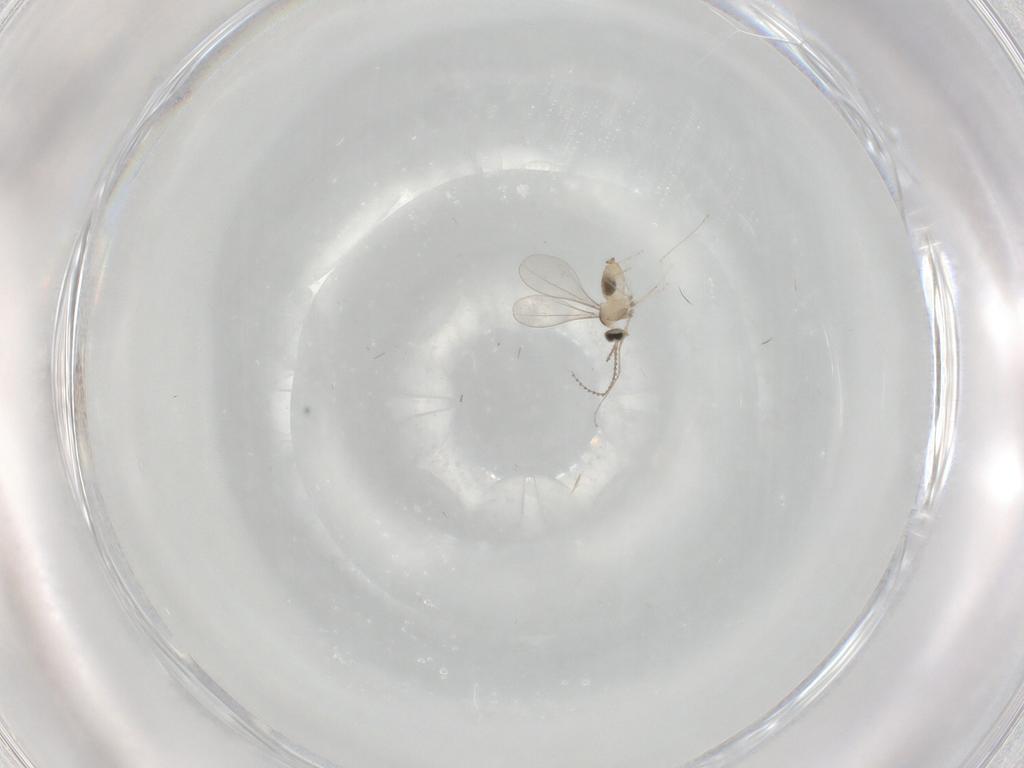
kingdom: Animalia
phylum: Arthropoda
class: Insecta
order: Diptera
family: Cecidomyiidae
